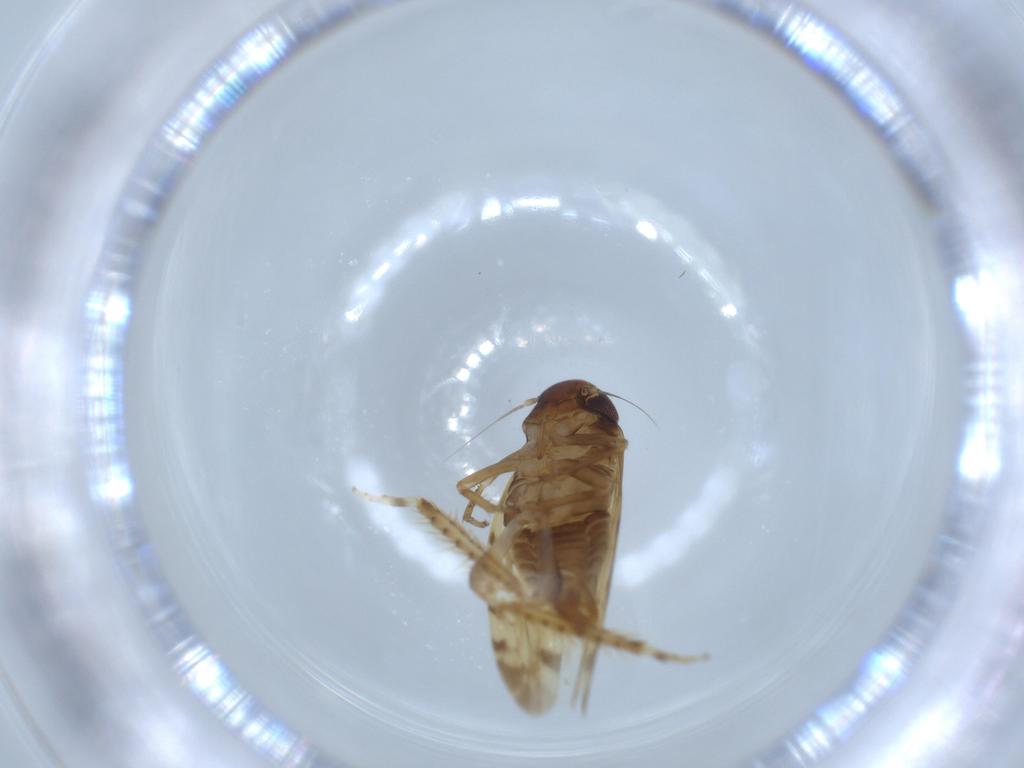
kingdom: Animalia
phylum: Arthropoda
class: Insecta
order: Hemiptera
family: Cicadellidae
